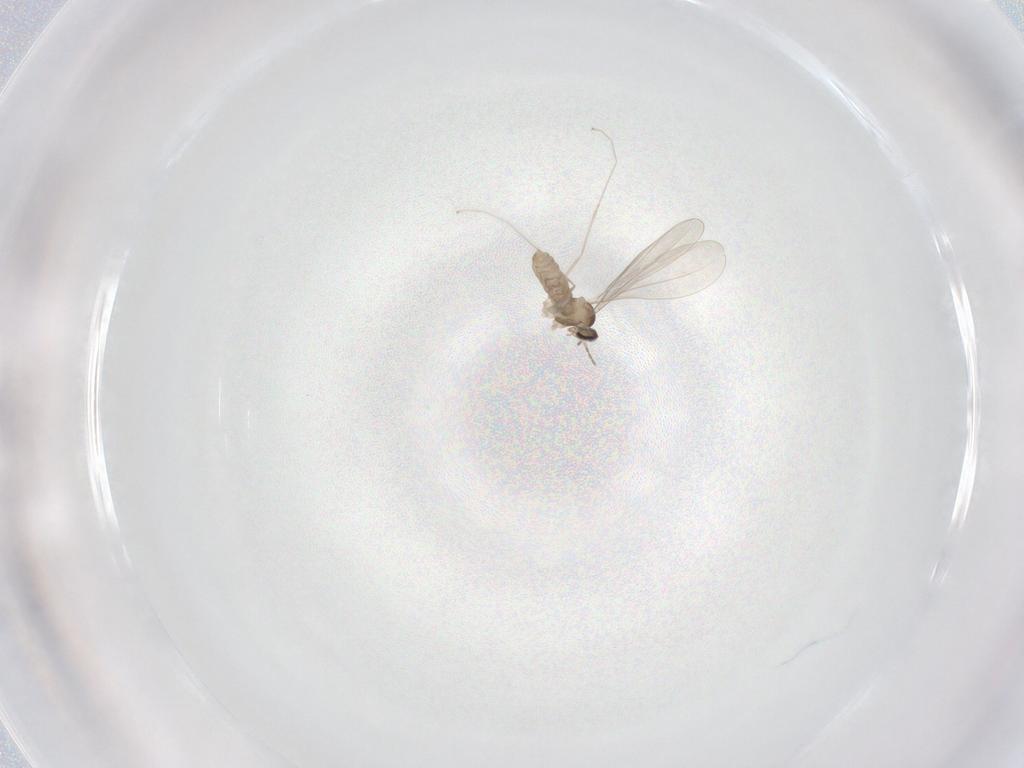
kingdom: Animalia
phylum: Arthropoda
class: Insecta
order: Diptera
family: Cecidomyiidae
